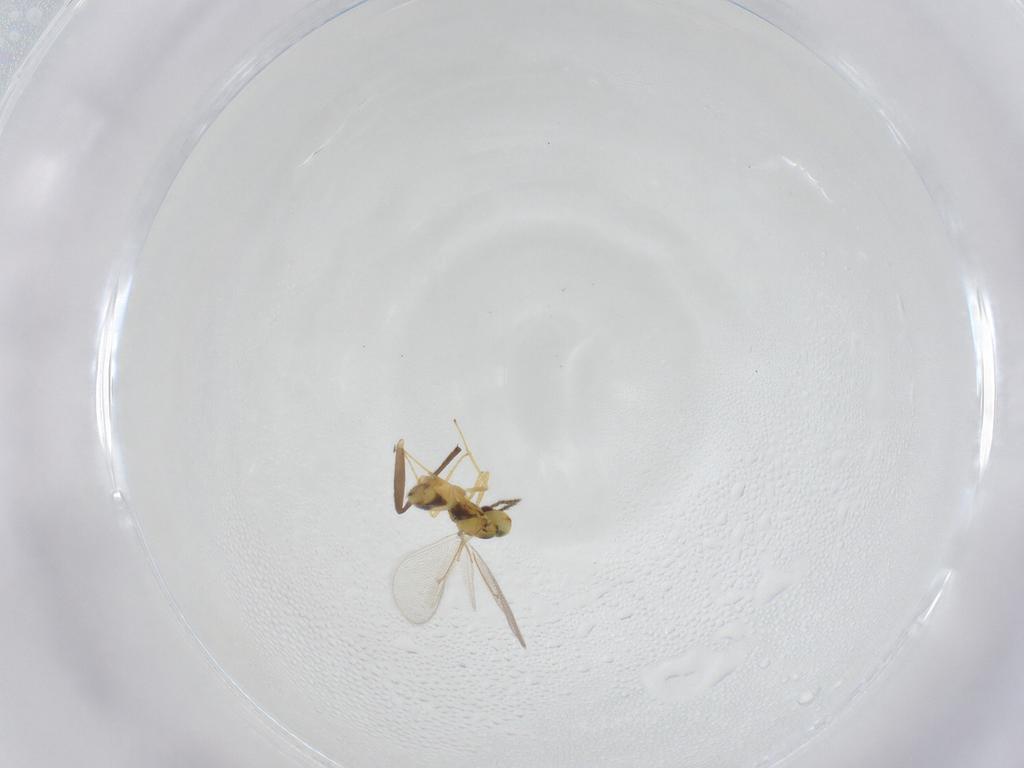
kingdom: Animalia
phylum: Arthropoda
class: Insecta
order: Hymenoptera
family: Eulophidae
